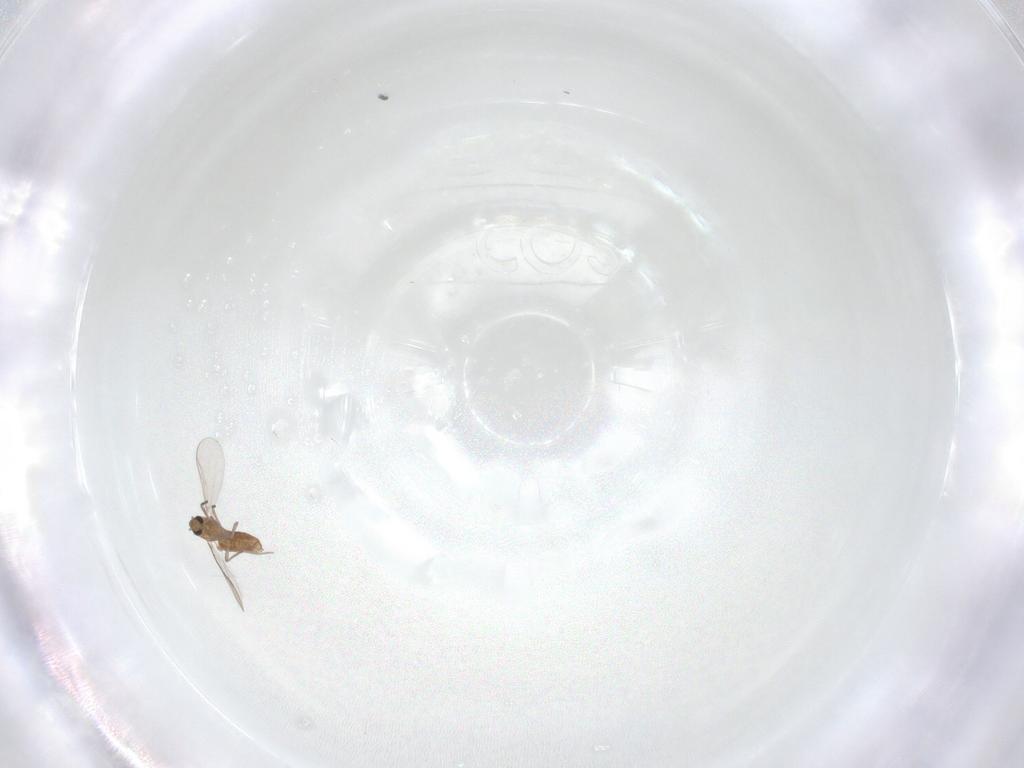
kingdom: Animalia
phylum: Arthropoda
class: Insecta
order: Diptera
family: Chironomidae
